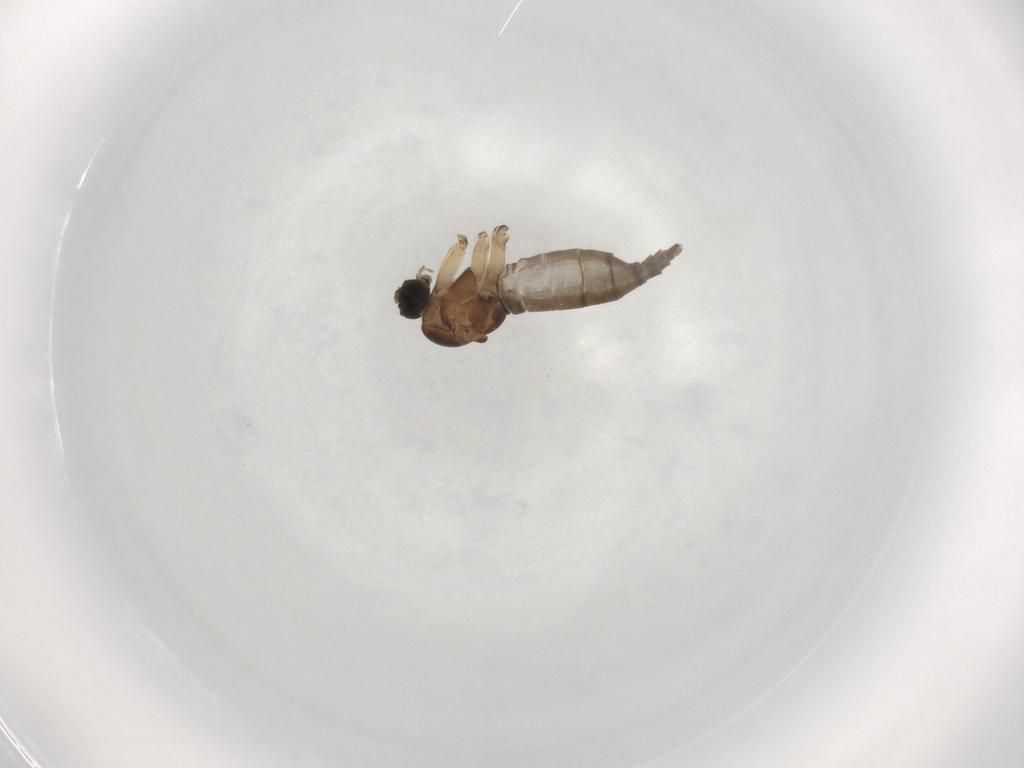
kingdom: Animalia
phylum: Arthropoda
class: Insecta
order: Diptera
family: Sciaridae
